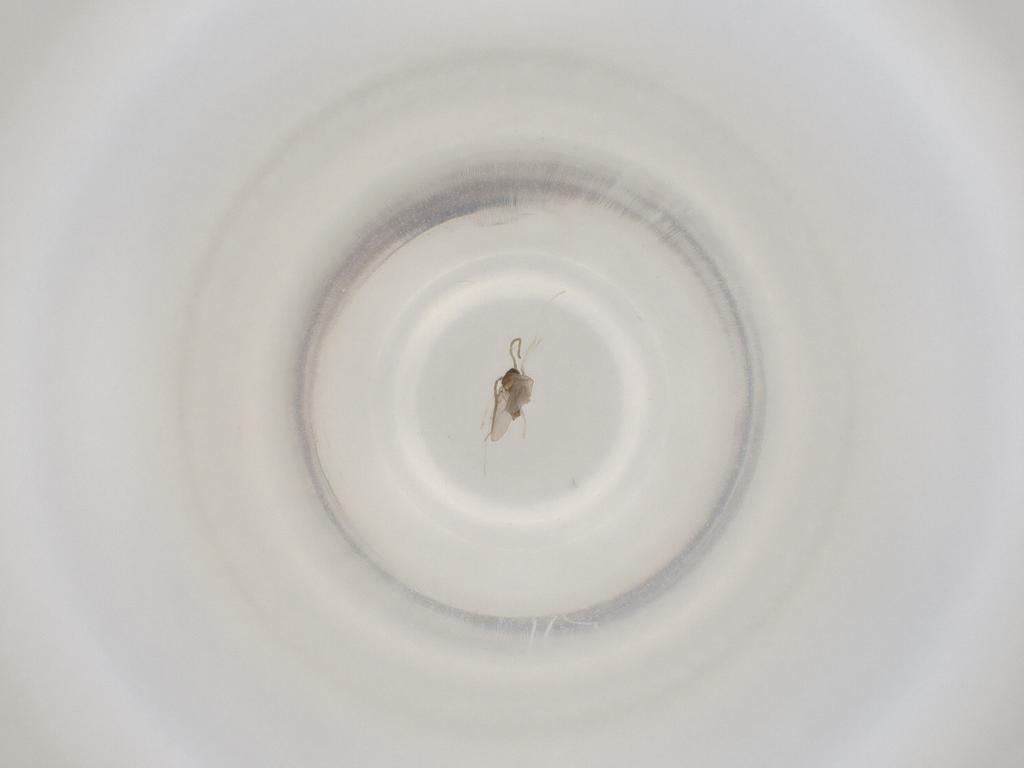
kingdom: Animalia
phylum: Arthropoda
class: Insecta
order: Diptera
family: Cecidomyiidae
